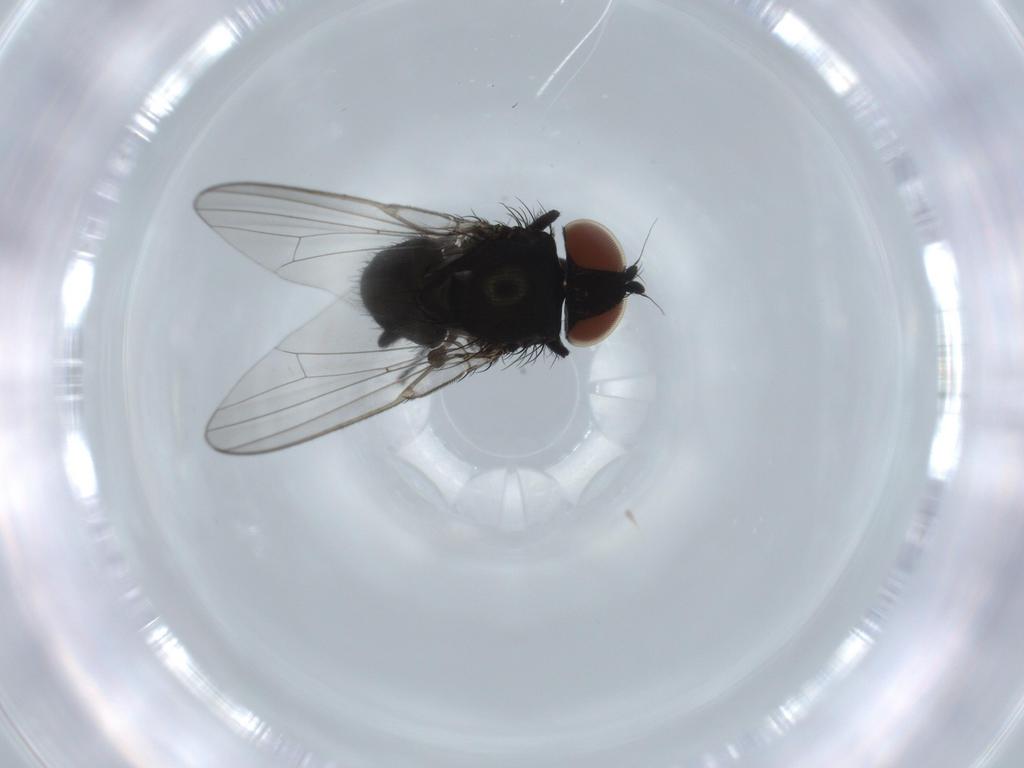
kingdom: Animalia
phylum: Arthropoda
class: Insecta
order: Diptera
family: Milichiidae
